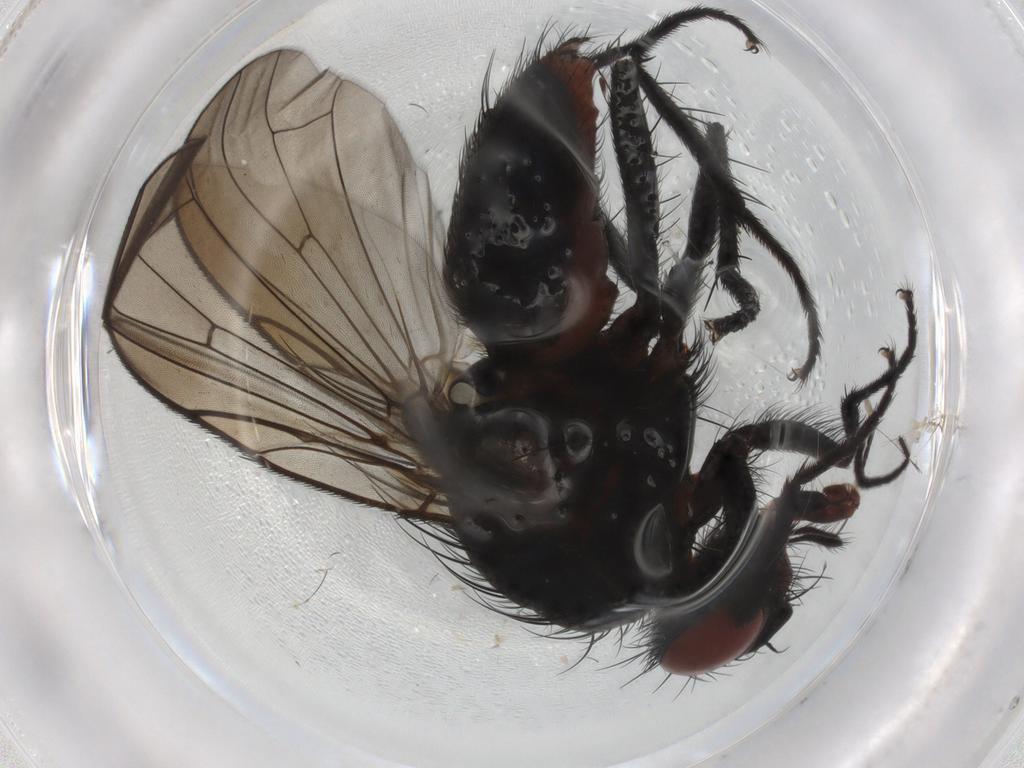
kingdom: Animalia
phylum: Arthropoda
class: Insecta
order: Diptera
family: Anthomyiidae
